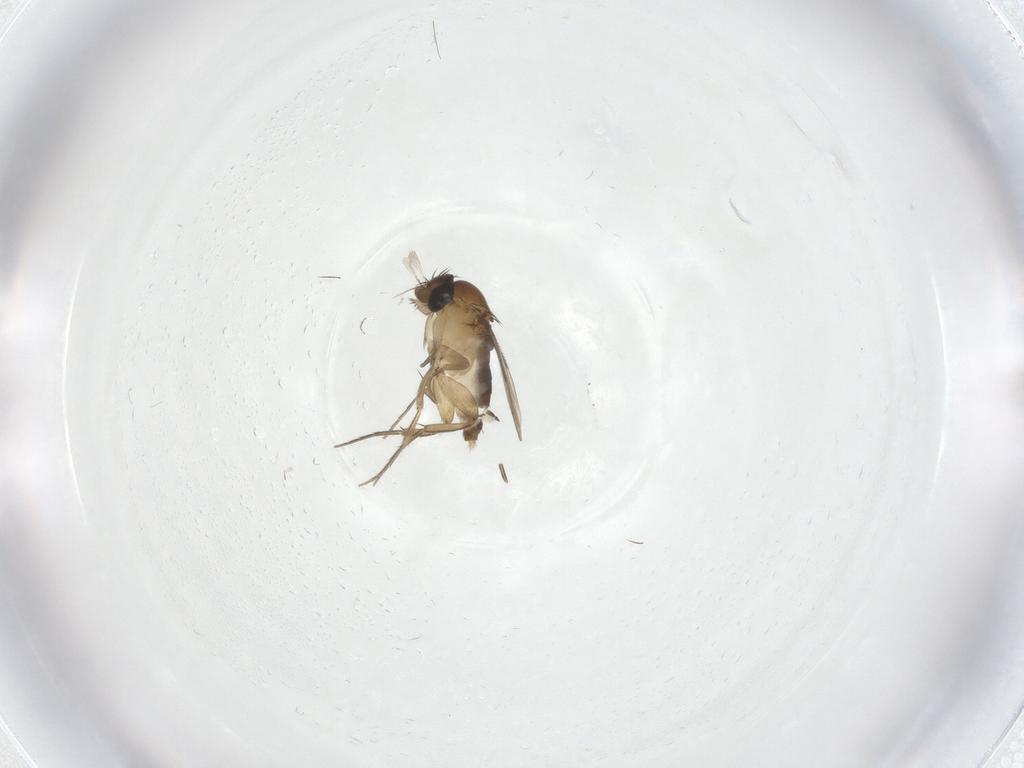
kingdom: Animalia
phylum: Arthropoda
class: Insecta
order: Diptera
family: Phoridae
